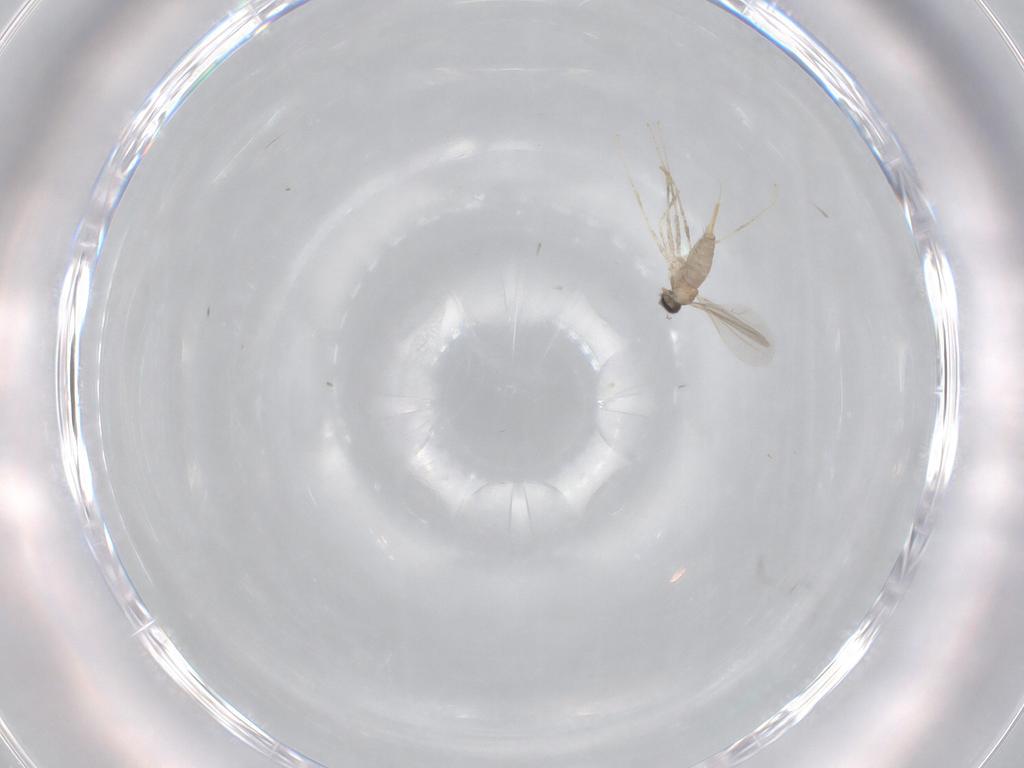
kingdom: Animalia
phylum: Arthropoda
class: Insecta
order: Diptera
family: Cecidomyiidae
